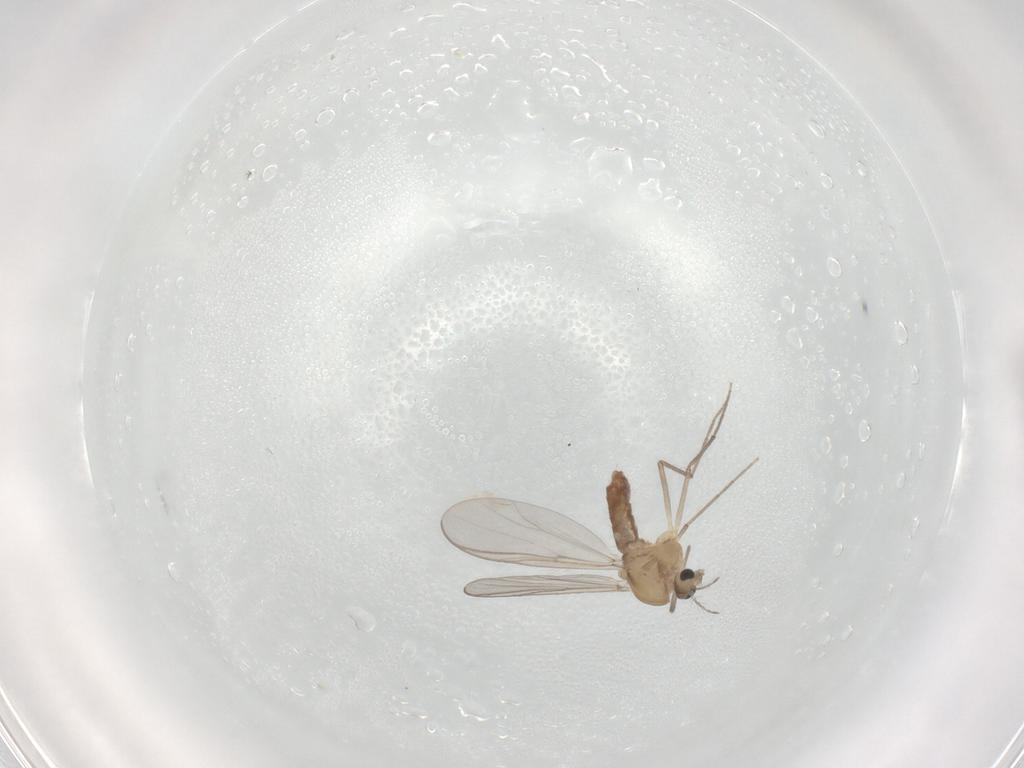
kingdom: Animalia
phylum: Arthropoda
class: Insecta
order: Diptera
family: Chironomidae
